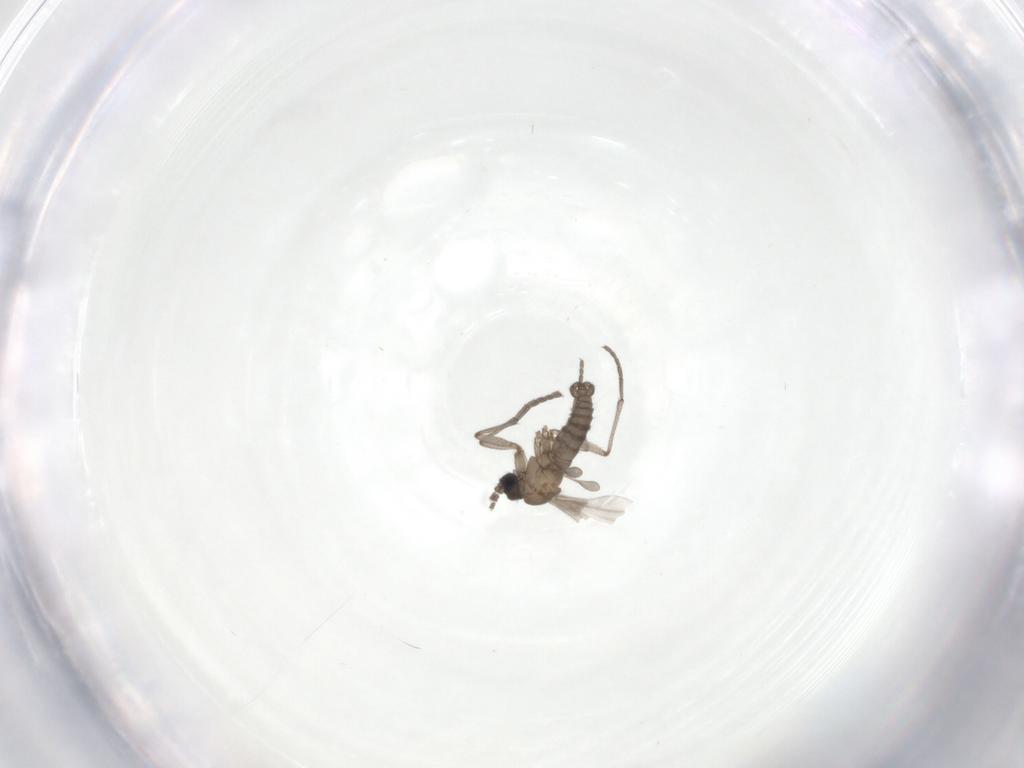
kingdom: Animalia
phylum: Arthropoda
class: Insecta
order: Diptera
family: Sciaridae
